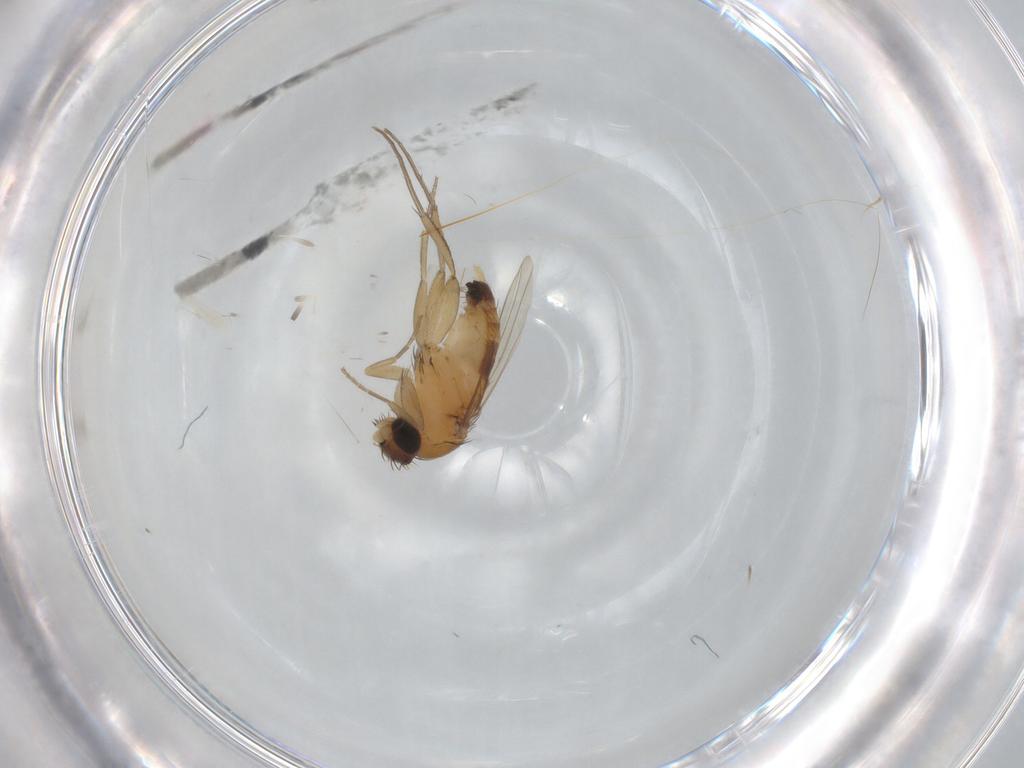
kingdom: Animalia
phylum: Arthropoda
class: Insecta
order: Diptera
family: Phoridae
